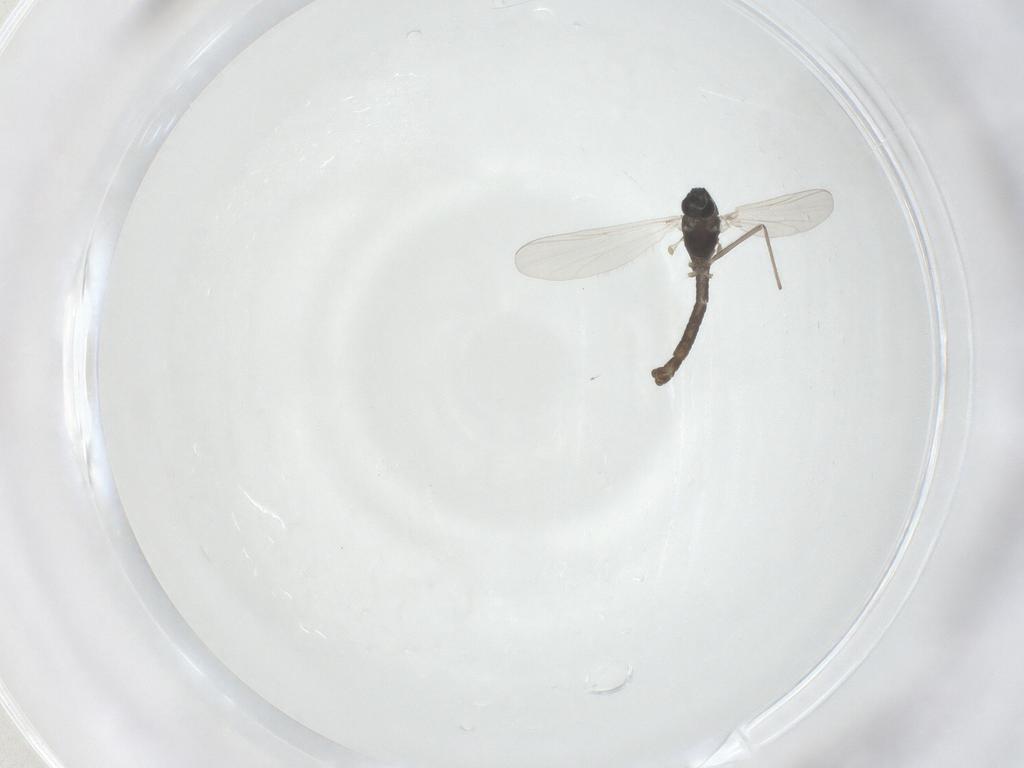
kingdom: Animalia
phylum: Arthropoda
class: Insecta
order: Diptera
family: Chironomidae
